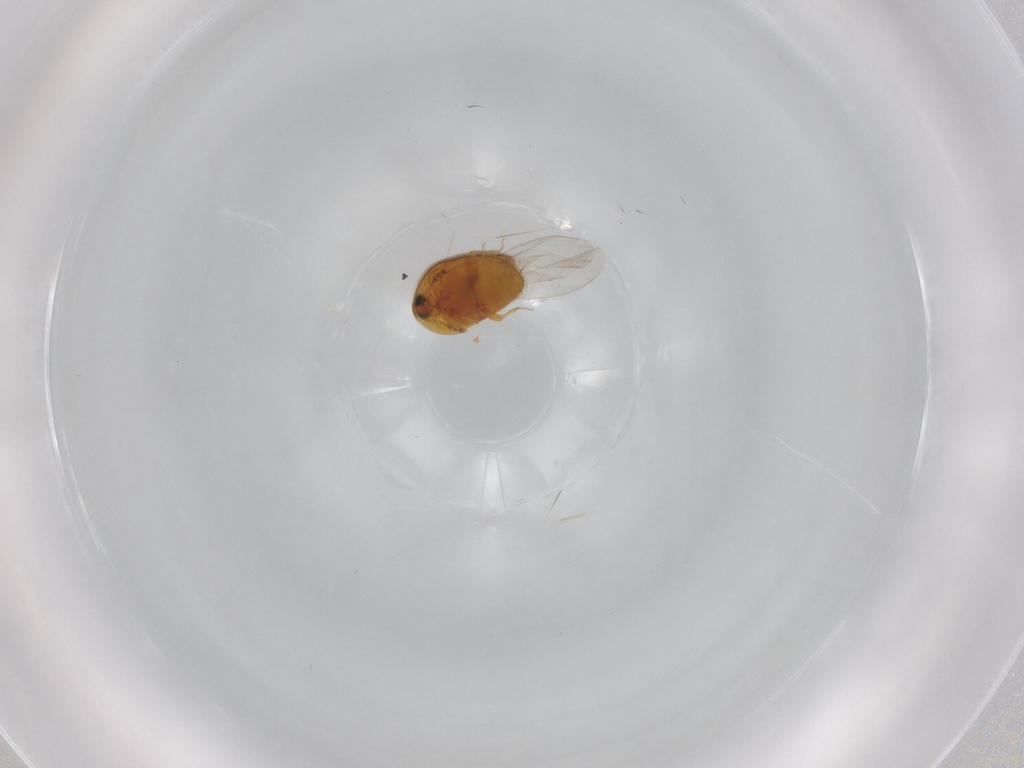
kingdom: Animalia
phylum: Arthropoda
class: Insecta
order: Coleoptera
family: Corylophidae
